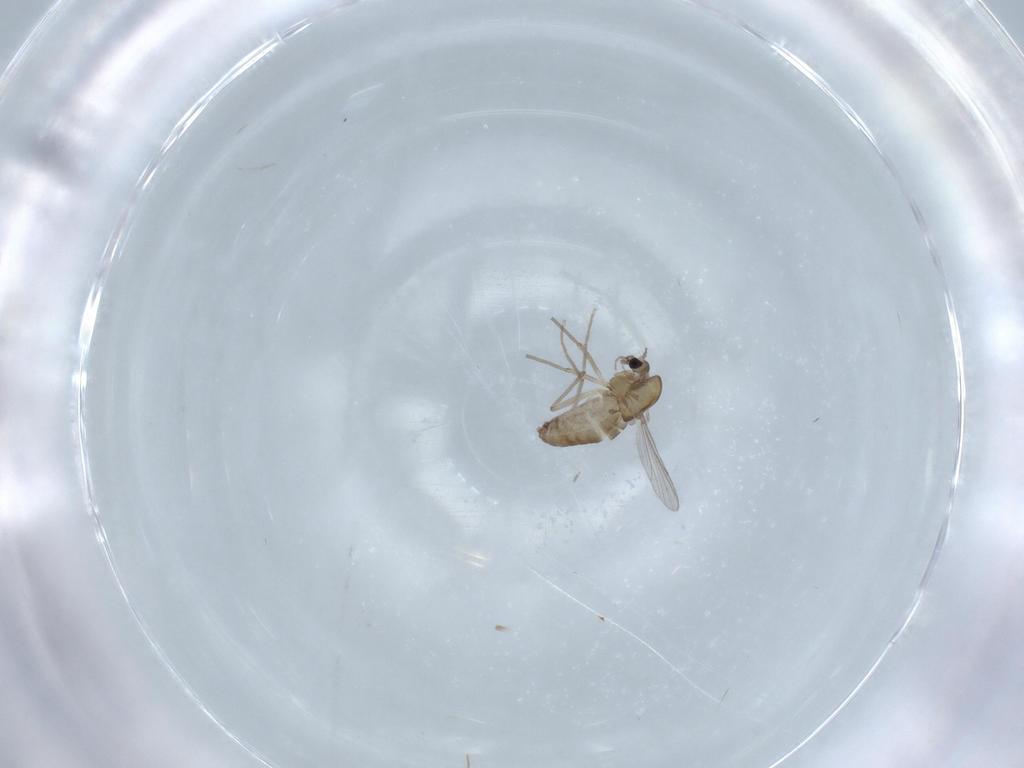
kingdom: Animalia
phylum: Arthropoda
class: Insecta
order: Diptera
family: Chironomidae
